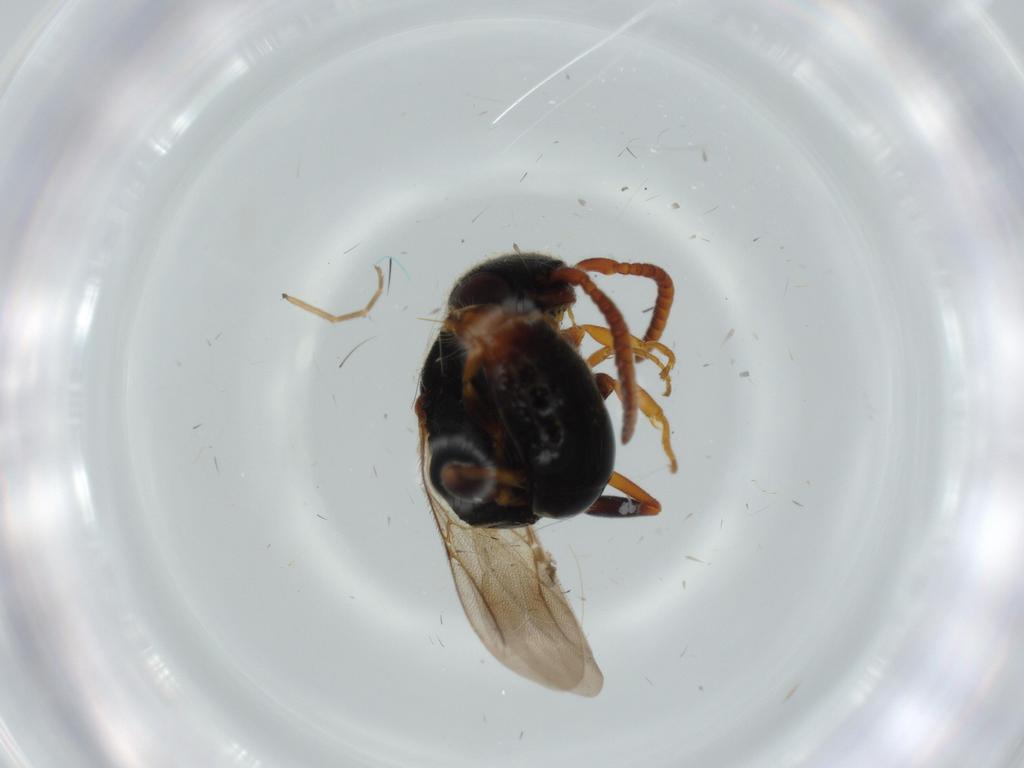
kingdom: Animalia
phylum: Arthropoda
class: Insecta
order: Hymenoptera
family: Bethylidae
